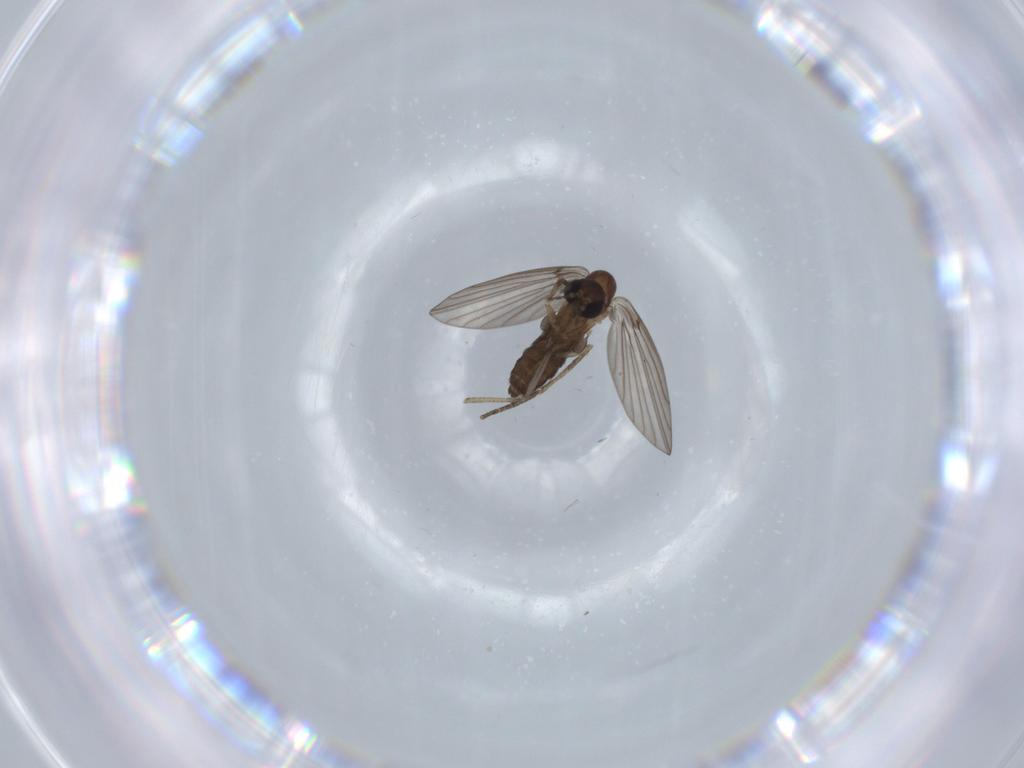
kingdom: Animalia
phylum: Arthropoda
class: Insecta
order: Diptera
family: Psychodidae
